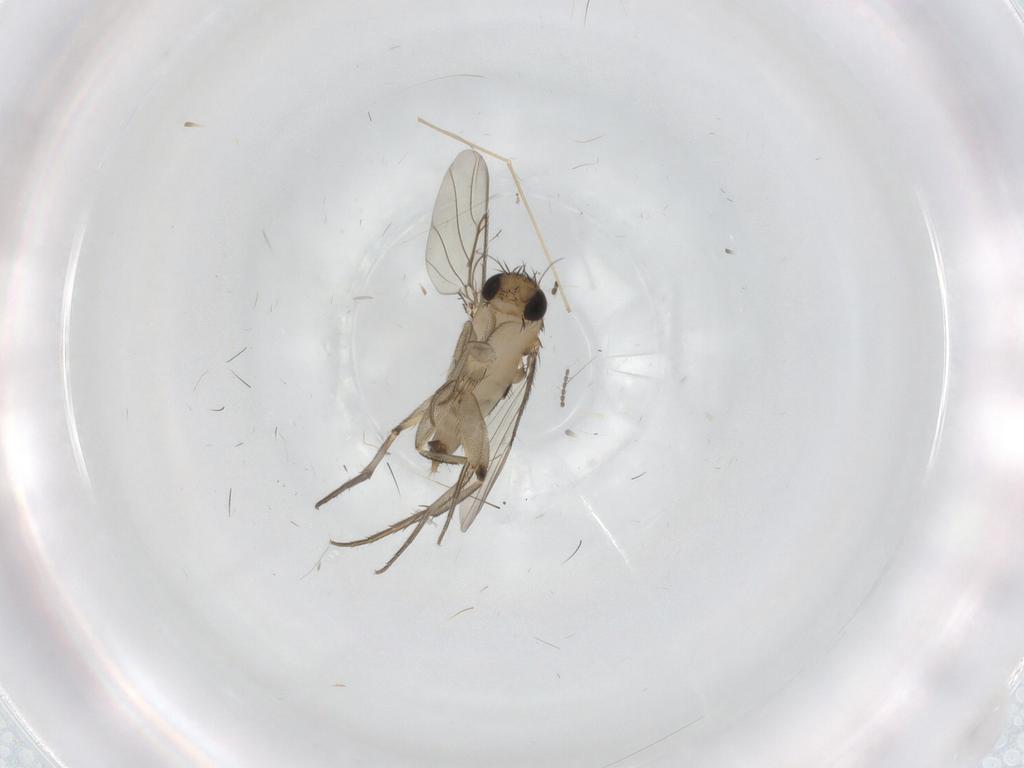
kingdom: Animalia
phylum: Arthropoda
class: Insecta
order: Diptera
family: Phoridae
